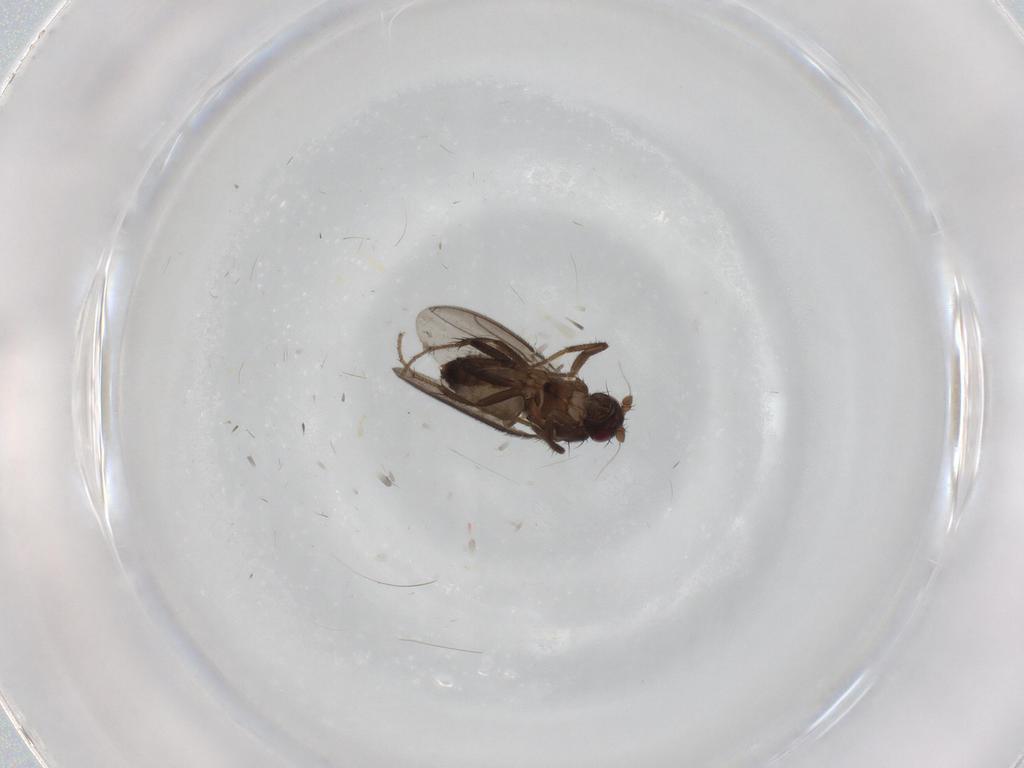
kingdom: Animalia
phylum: Arthropoda
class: Insecta
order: Diptera
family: Sphaeroceridae
